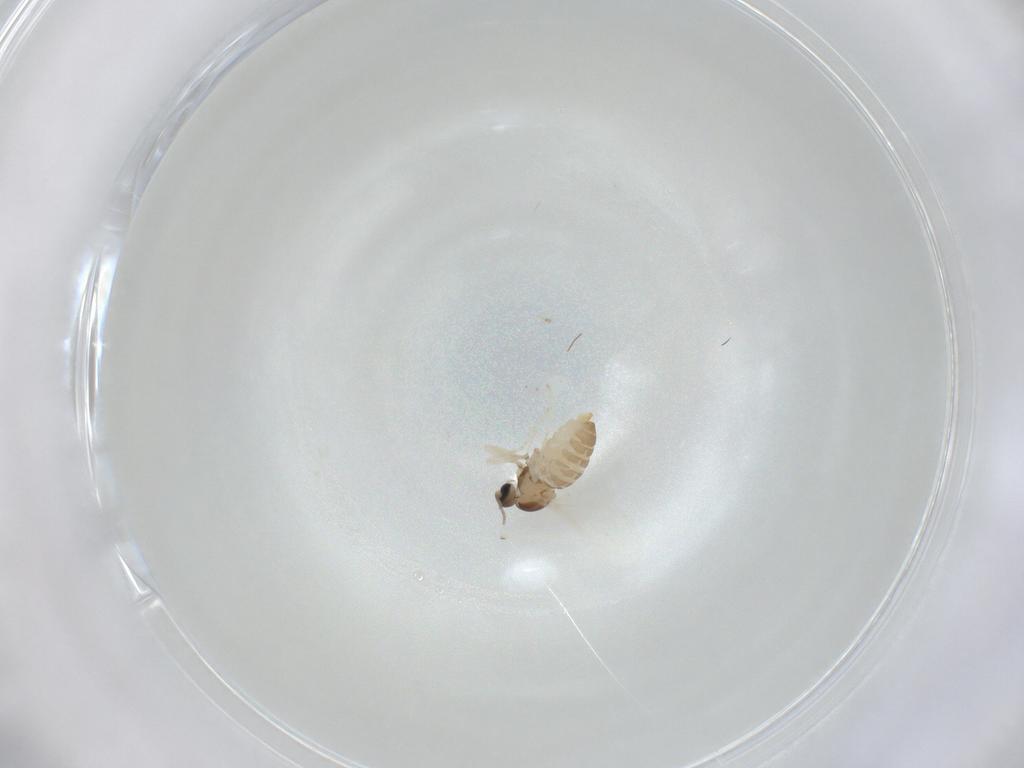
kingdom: Animalia
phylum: Arthropoda
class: Insecta
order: Diptera
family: Cecidomyiidae
